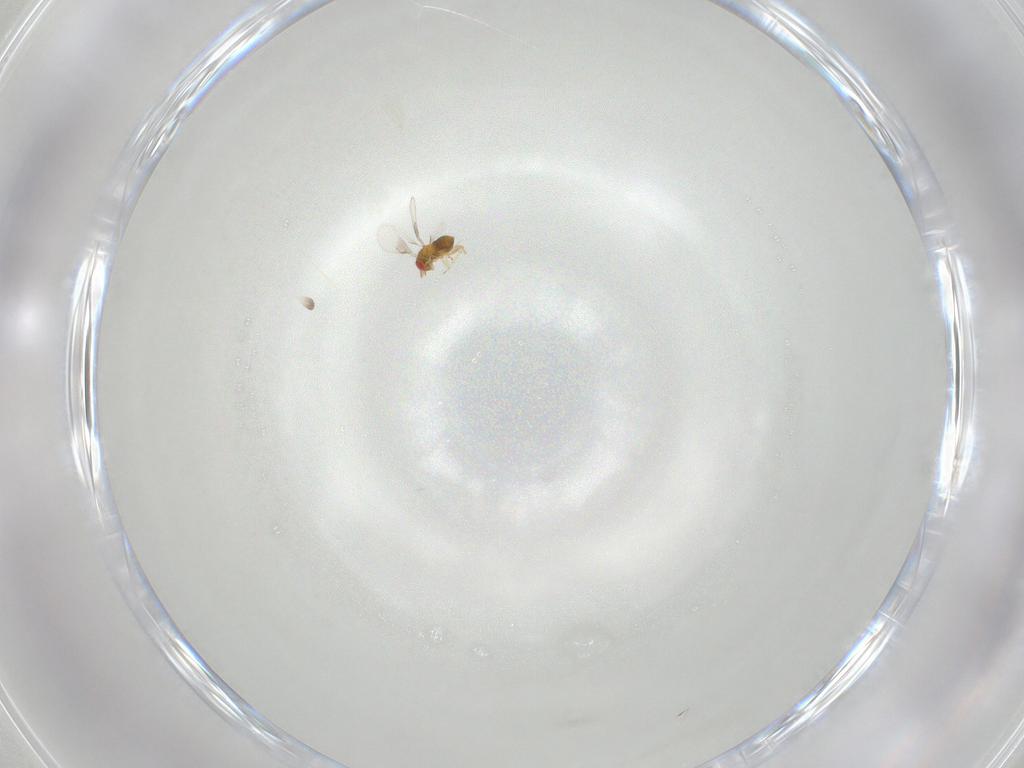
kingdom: Animalia
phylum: Arthropoda
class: Insecta
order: Hymenoptera
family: Trichogrammatidae
